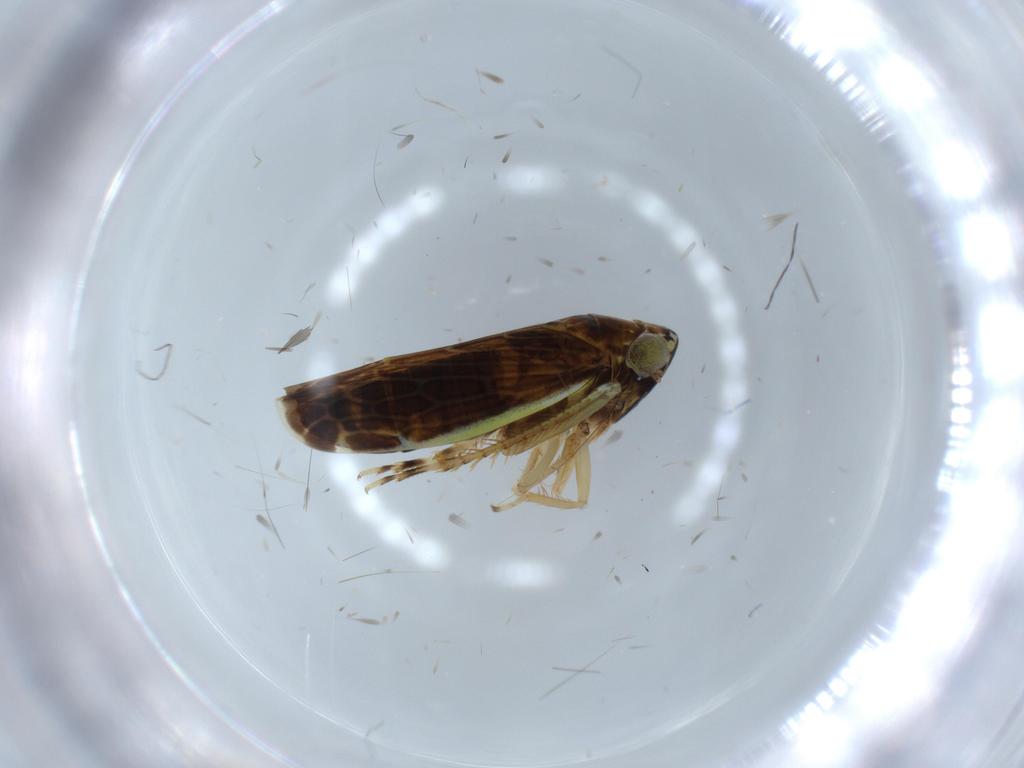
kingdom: Animalia
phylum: Arthropoda
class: Insecta
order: Hemiptera
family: Cicadellidae
